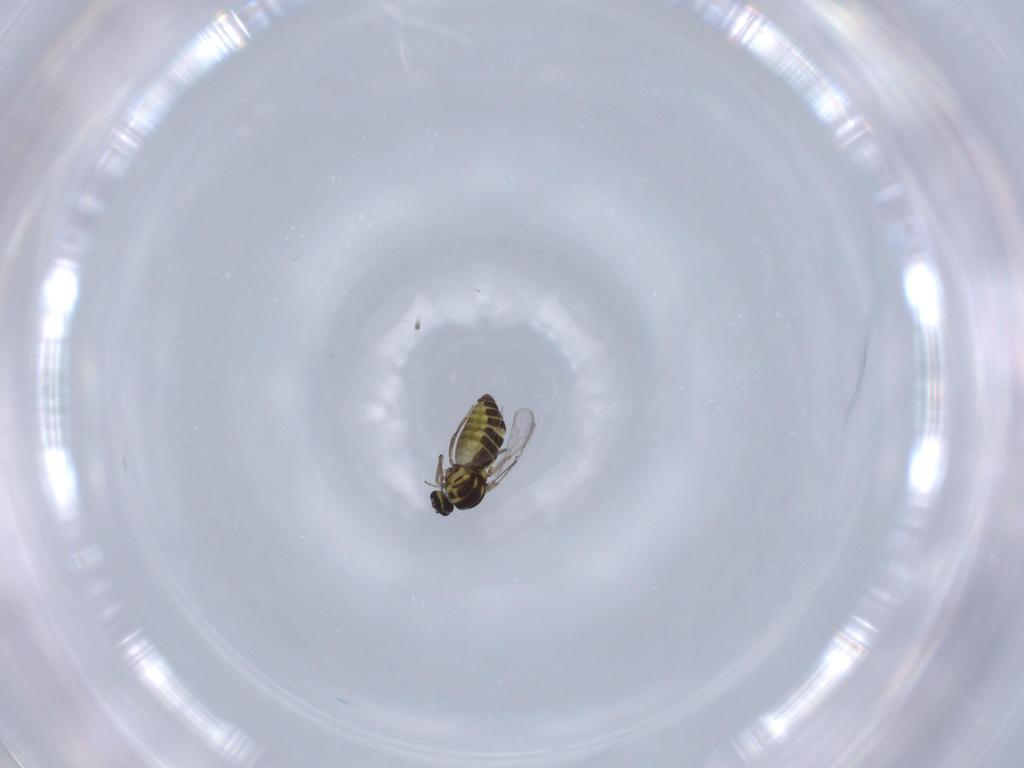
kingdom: Animalia
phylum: Arthropoda
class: Insecta
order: Diptera
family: Ceratopogonidae
